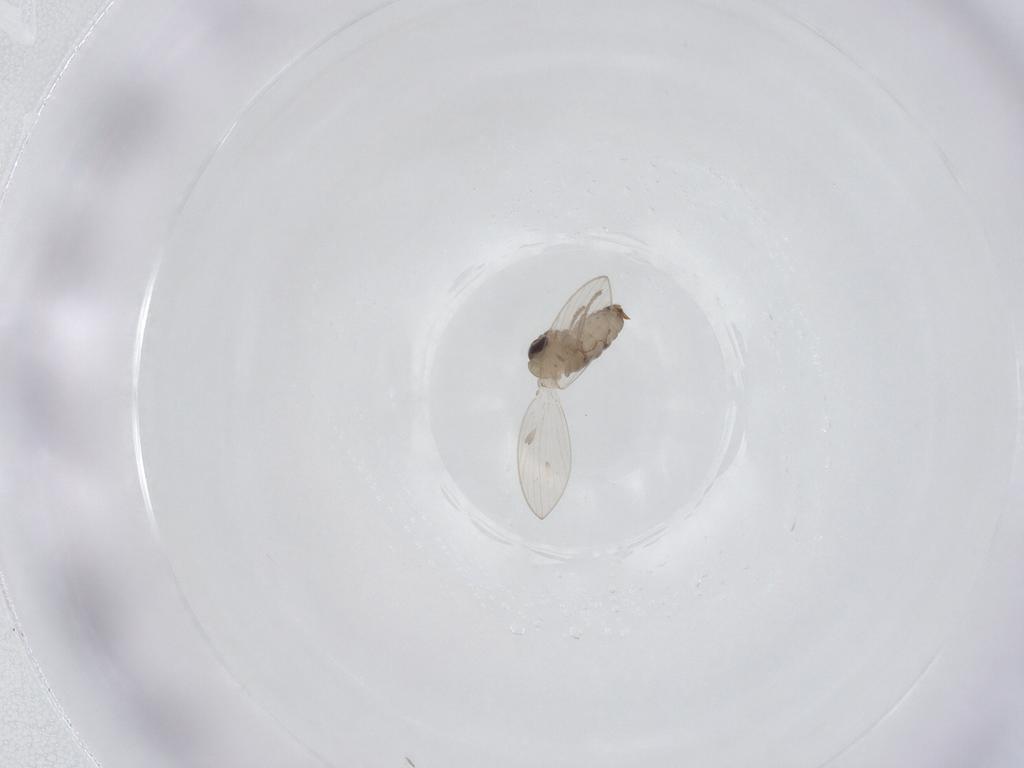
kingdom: Animalia
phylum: Arthropoda
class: Insecta
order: Diptera
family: Psychodidae
